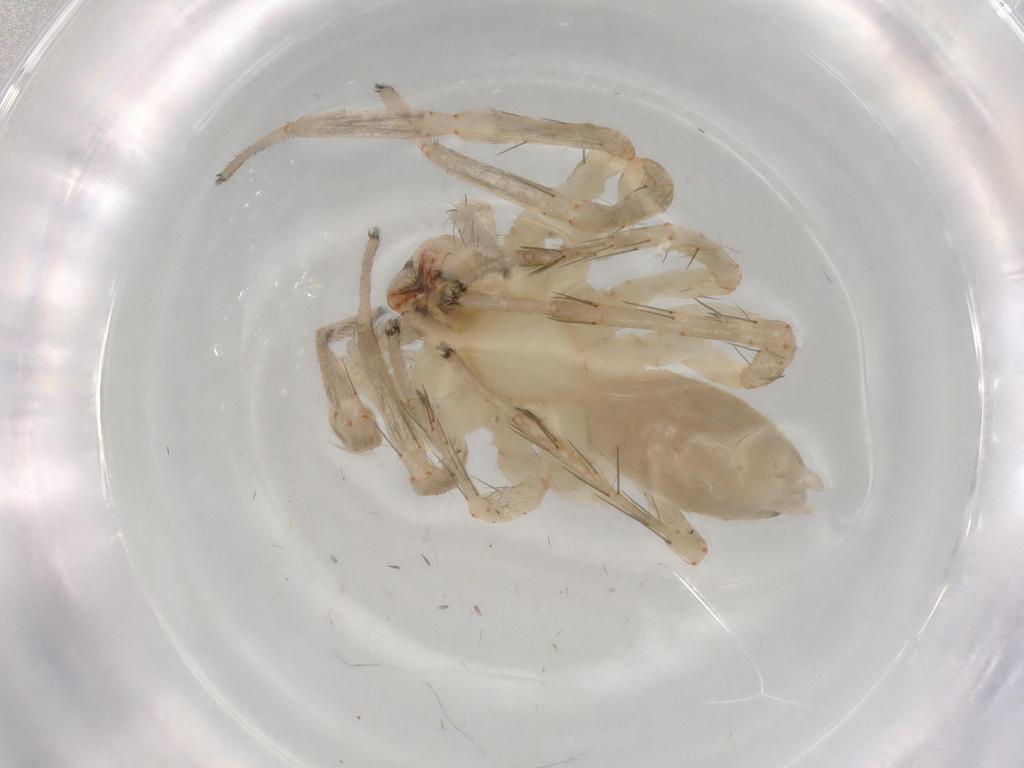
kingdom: Animalia
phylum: Arthropoda
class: Arachnida
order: Araneae
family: Anyphaenidae
